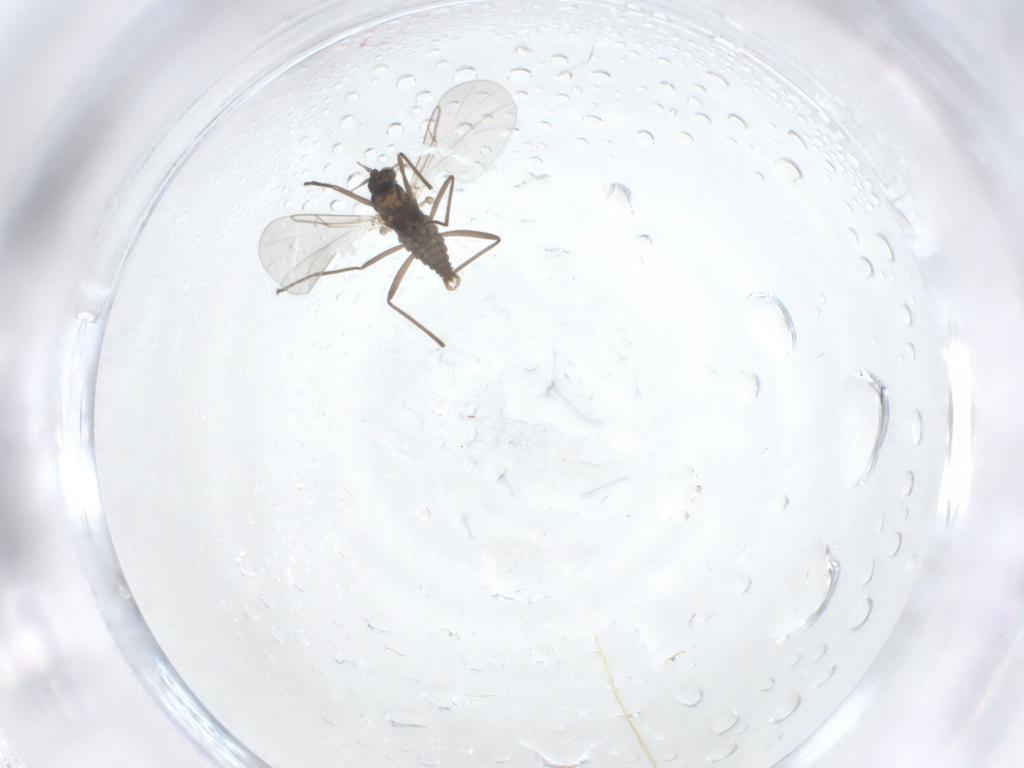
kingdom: Animalia
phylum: Arthropoda
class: Insecta
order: Diptera
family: Cecidomyiidae
